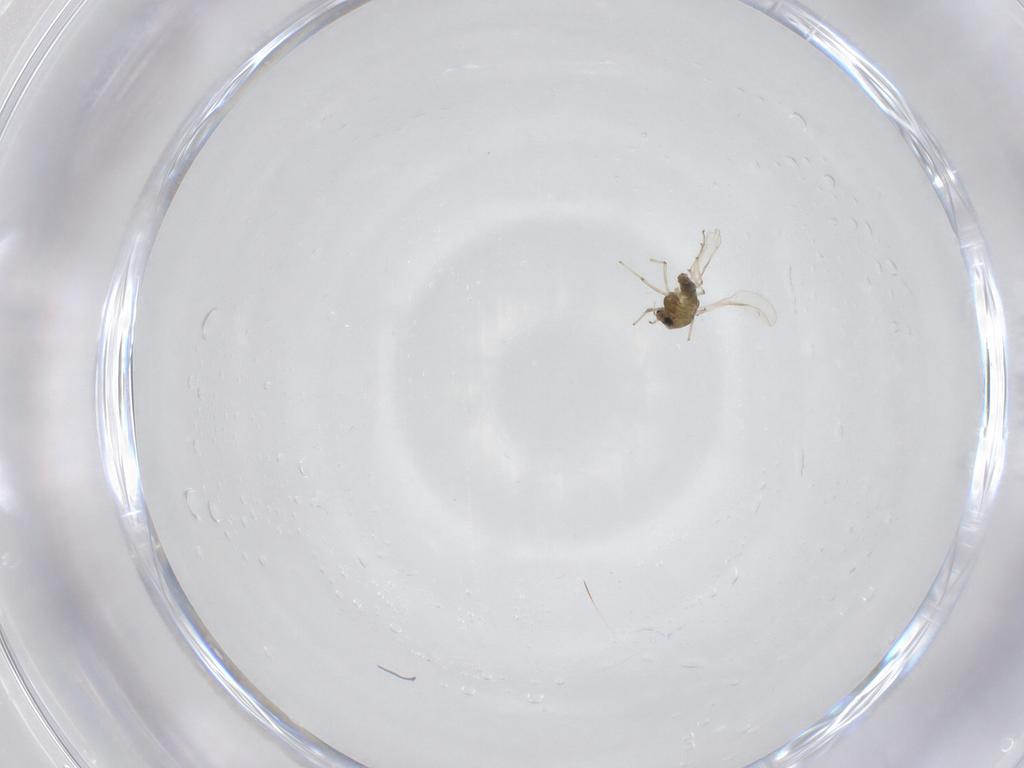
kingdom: Animalia
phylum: Arthropoda
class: Insecta
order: Diptera
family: Chironomidae
